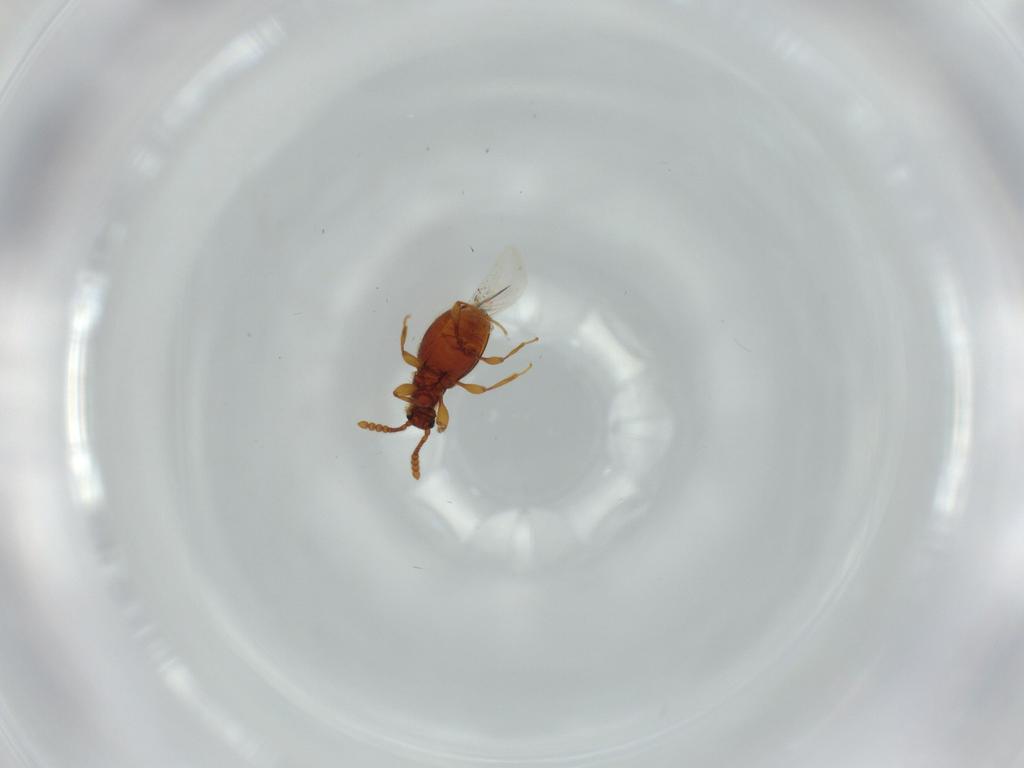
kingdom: Animalia
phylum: Arthropoda
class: Insecta
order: Coleoptera
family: Staphylinidae
